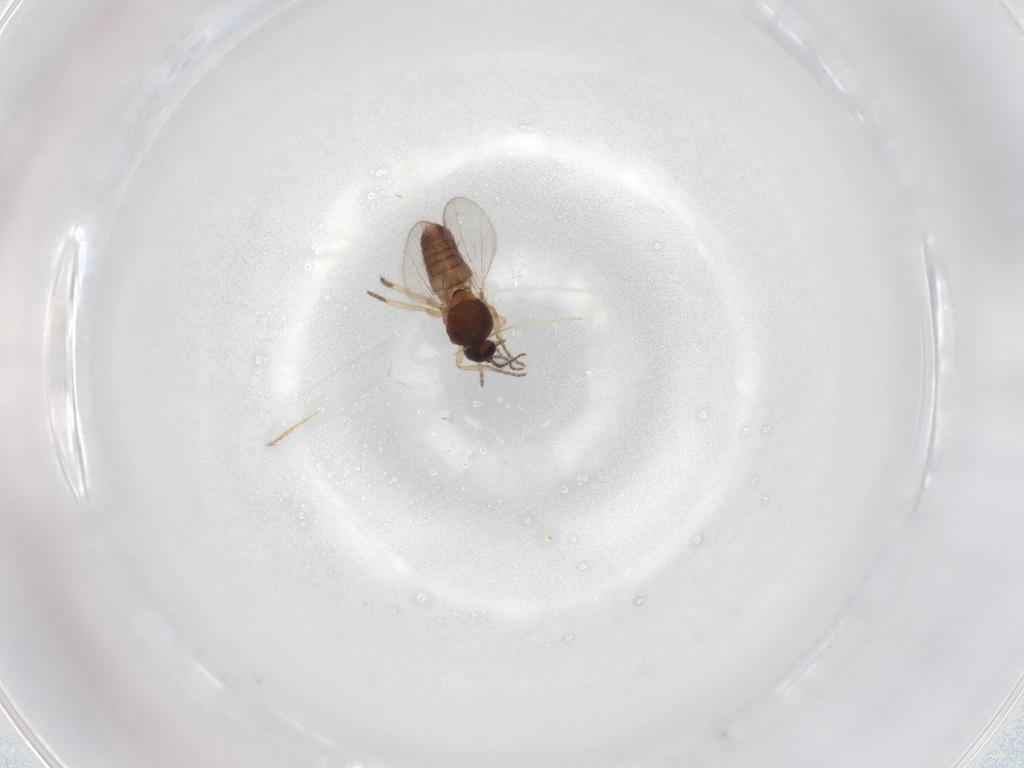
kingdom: Animalia
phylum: Arthropoda
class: Insecta
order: Diptera
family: Ceratopogonidae
